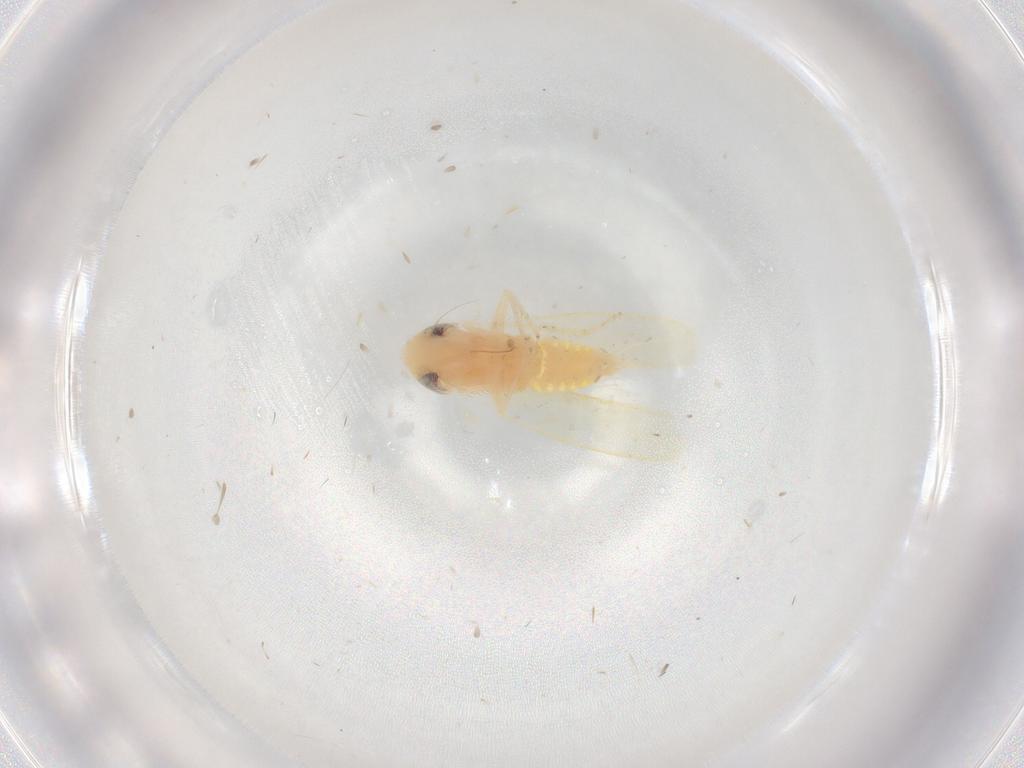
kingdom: Animalia
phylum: Arthropoda
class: Insecta
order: Hemiptera
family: Cicadellidae
